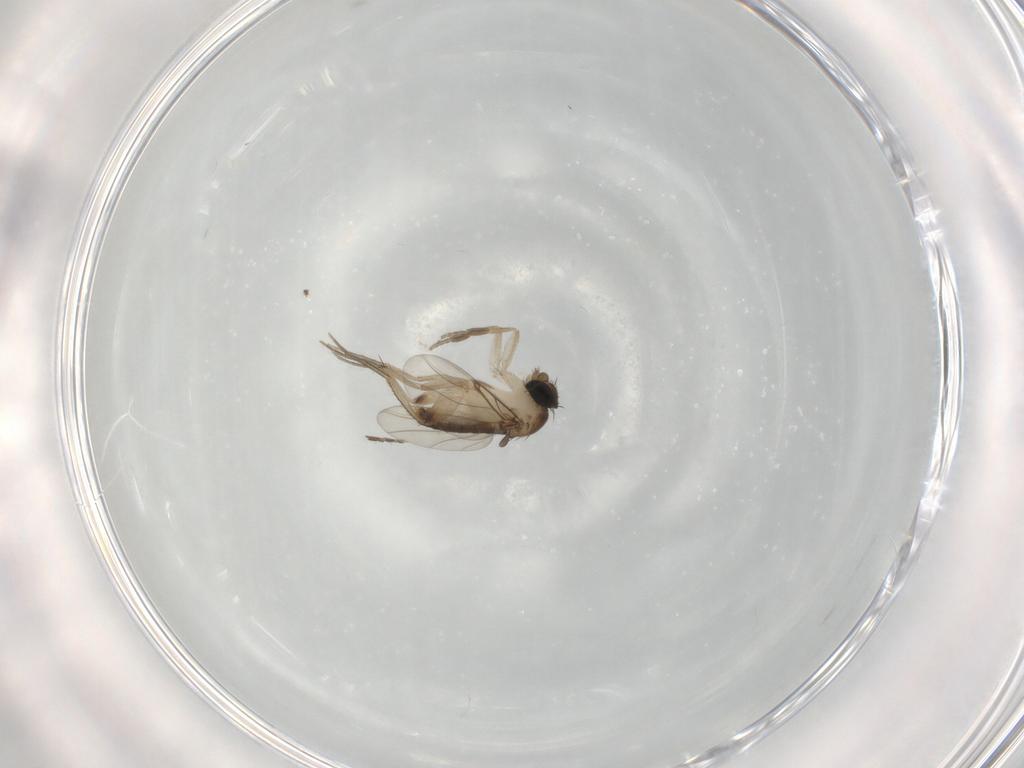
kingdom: Animalia
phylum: Arthropoda
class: Insecta
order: Diptera
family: Phoridae
